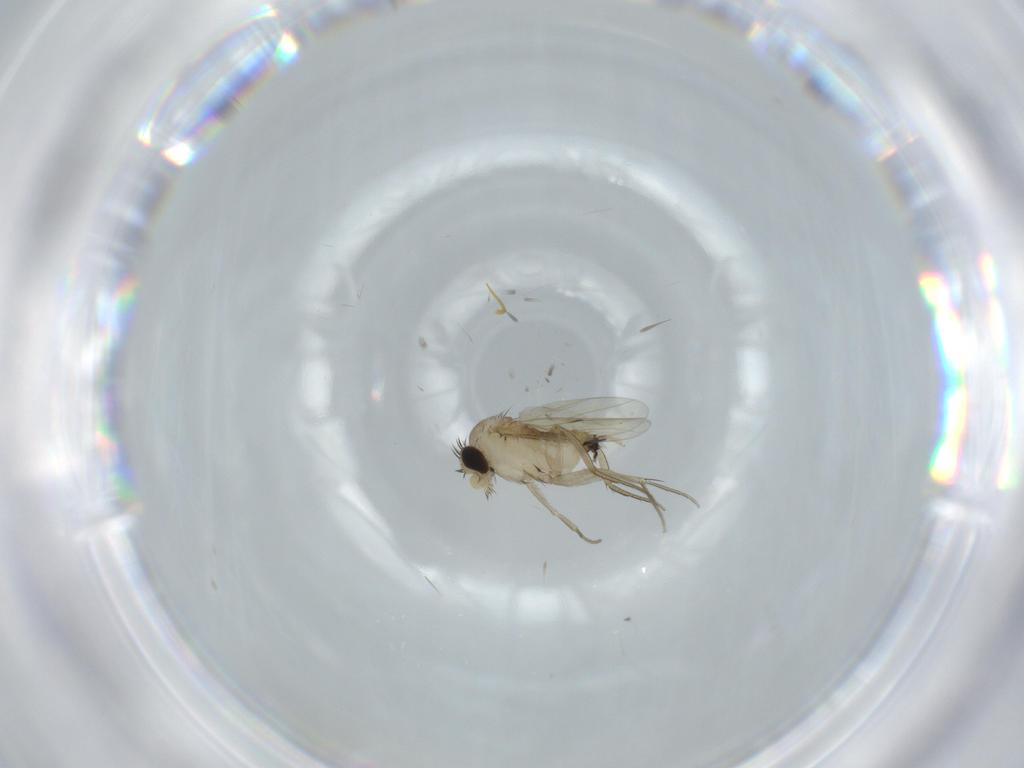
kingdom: Animalia
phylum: Arthropoda
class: Insecta
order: Diptera
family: Phoridae
